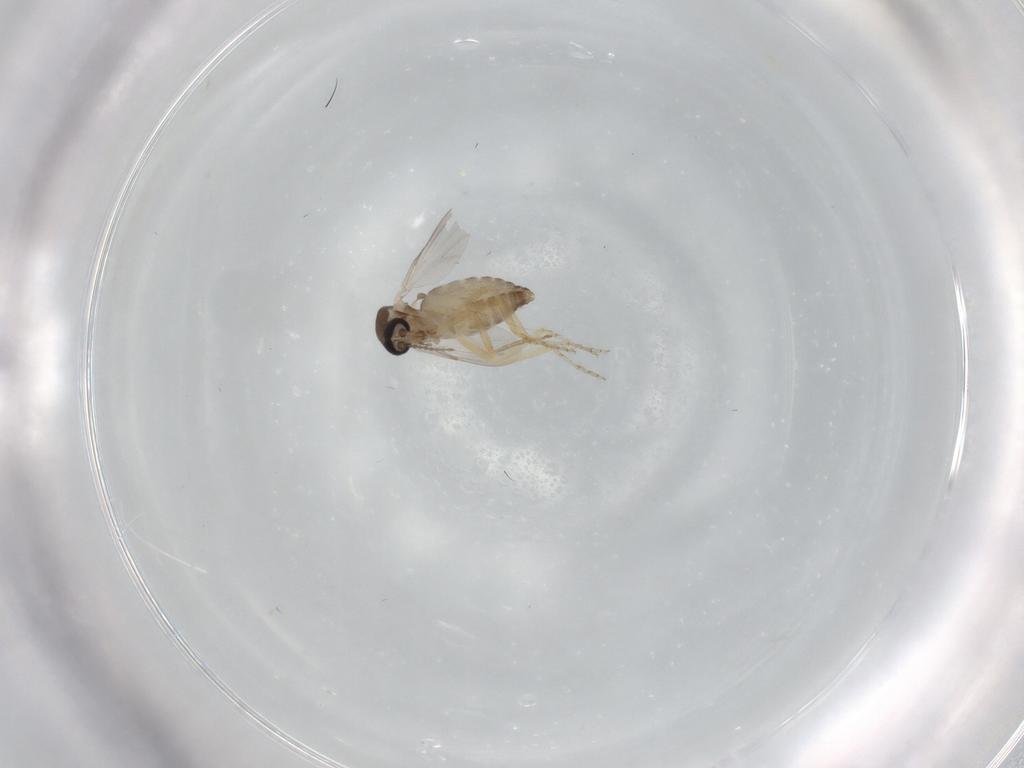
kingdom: Animalia
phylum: Arthropoda
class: Insecta
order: Diptera
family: Ceratopogonidae
